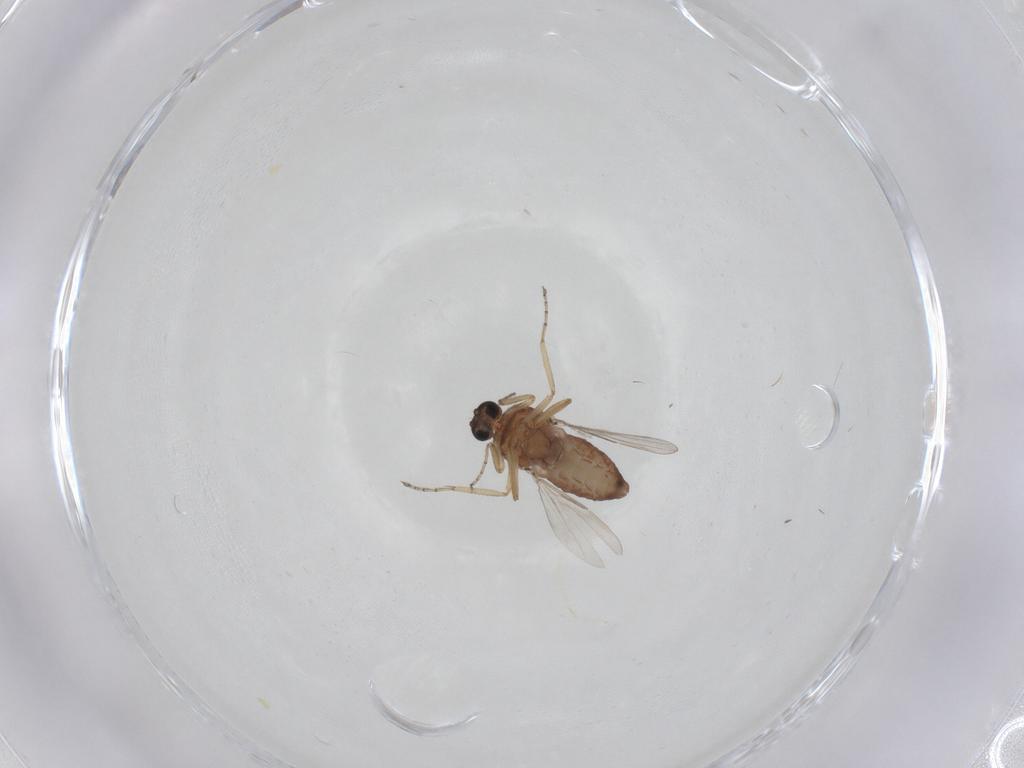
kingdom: Animalia
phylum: Arthropoda
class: Insecta
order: Diptera
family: Ceratopogonidae
